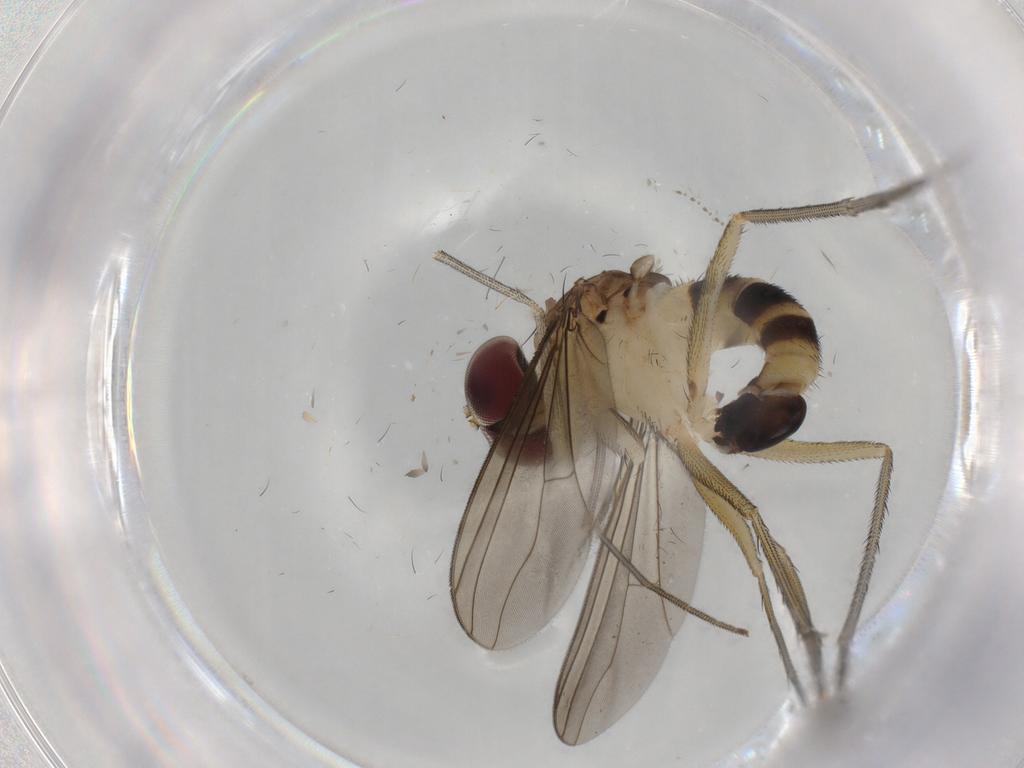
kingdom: Animalia
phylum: Arthropoda
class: Insecta
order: Diptera
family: Dolichopodidae
